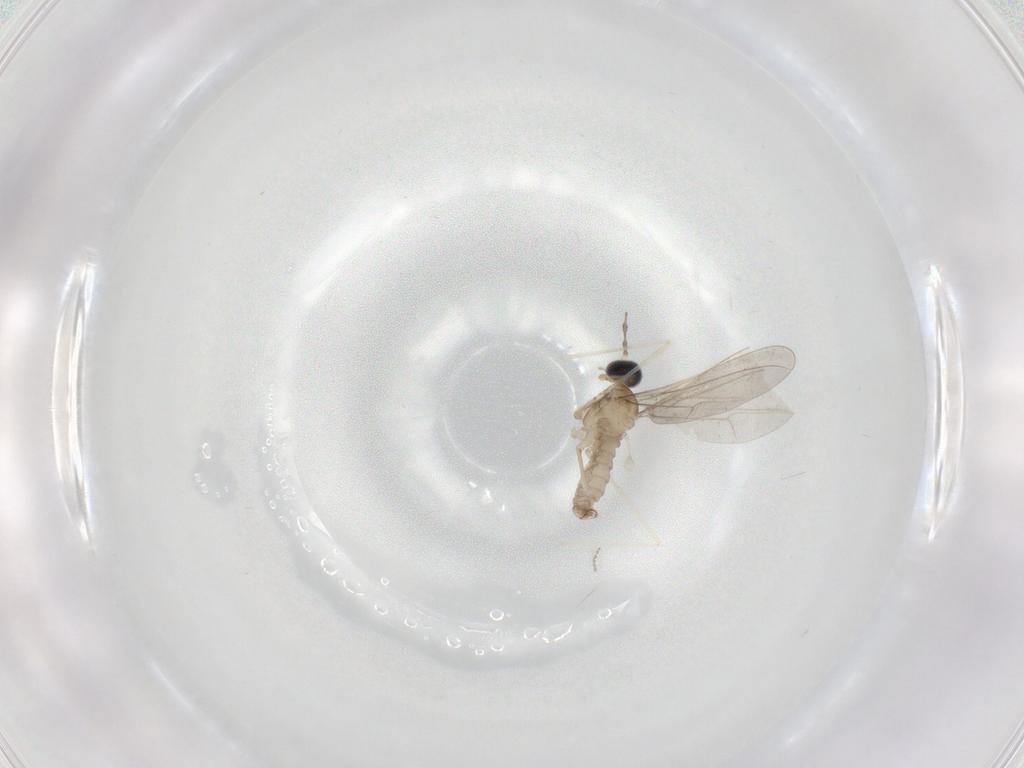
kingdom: Animalia
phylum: Arthropoda
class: Insecta
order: Diptera
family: Cecidomyiidae
